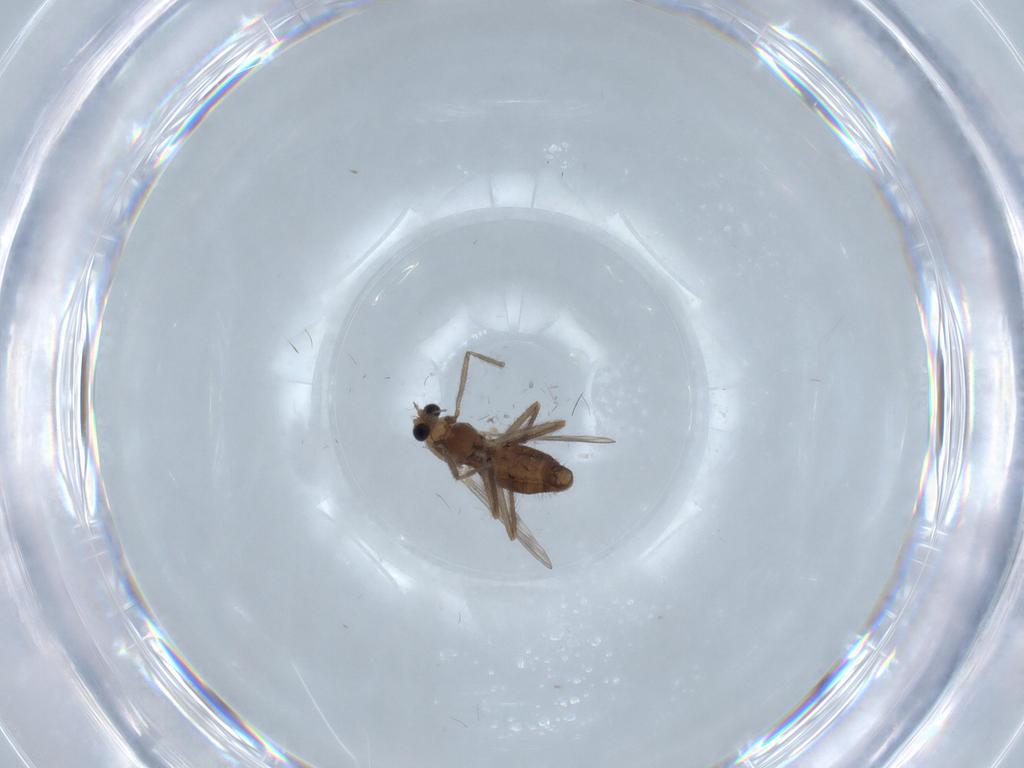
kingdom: Animalia
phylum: Arthropoda
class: Insecta
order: Diptera
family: Chironomidae
